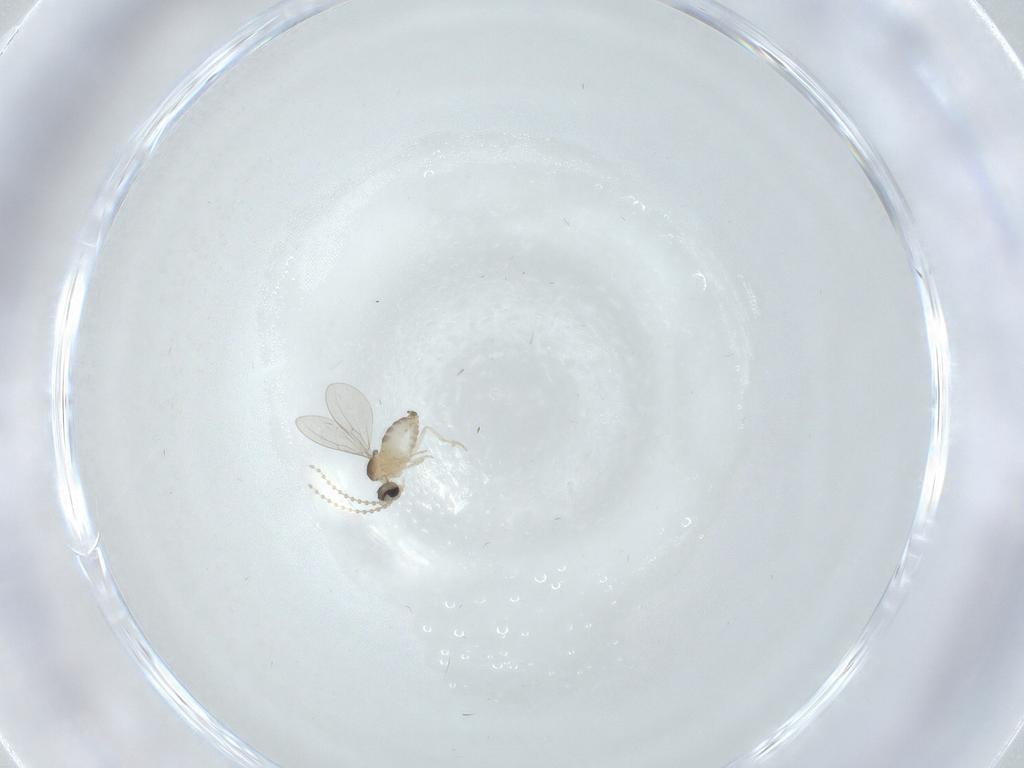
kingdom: Animalia
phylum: Arthropoda
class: Insecta
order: Diptera
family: Cecidomyiidae
